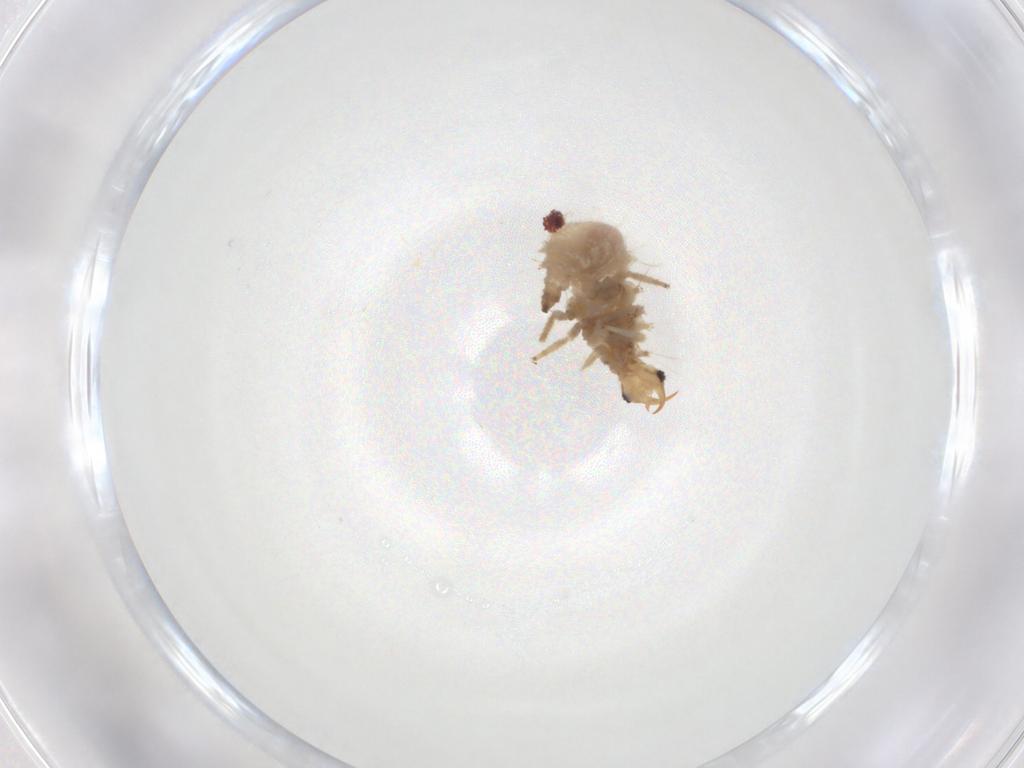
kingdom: Animalia
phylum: Arthropoda
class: Insecta
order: Neuroptera
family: Chrysopidae
